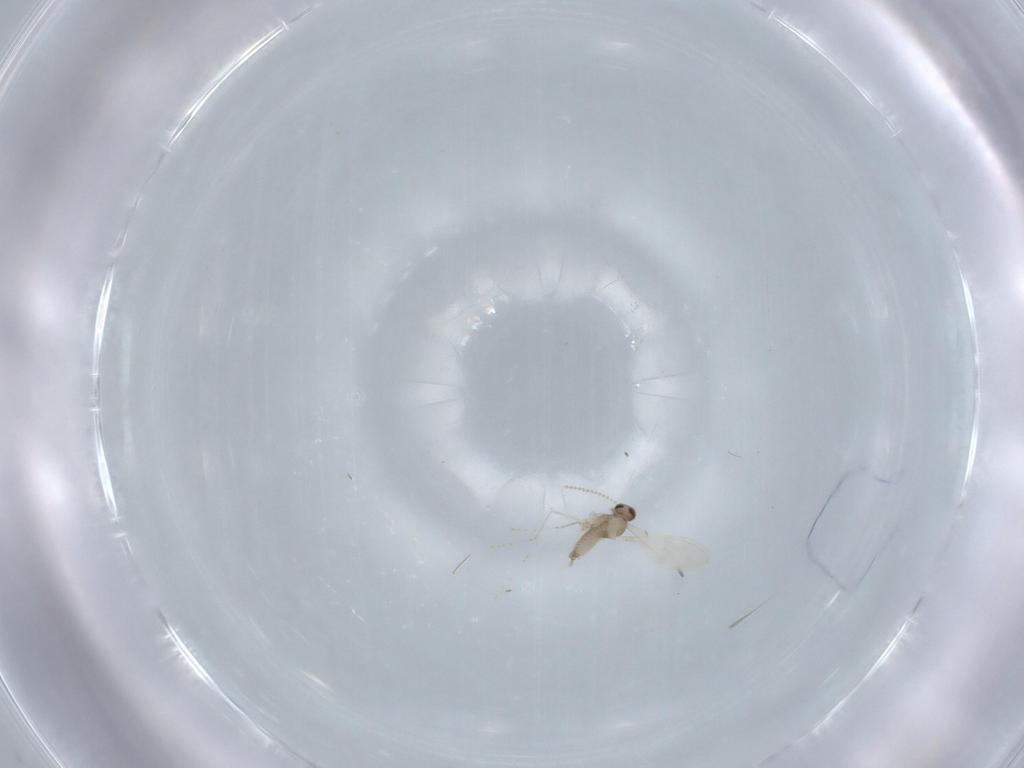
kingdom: Animalia
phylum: Arthropoda
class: Insecta
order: Diptera
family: Cecidomyiidae
